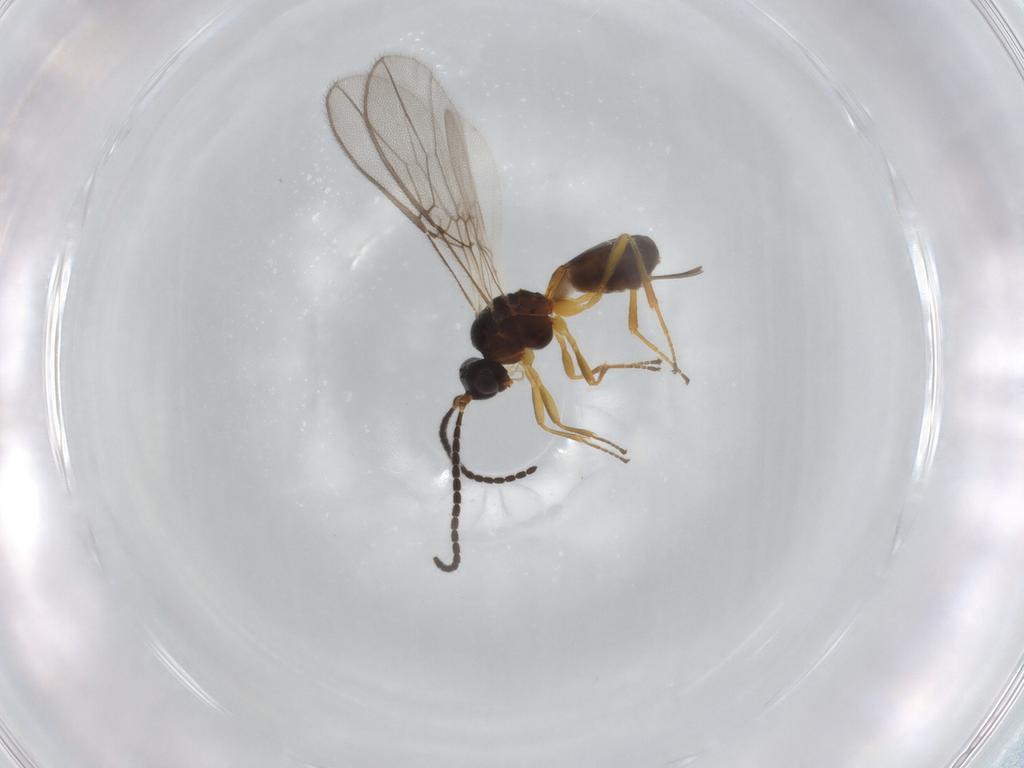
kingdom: Animalia
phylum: Arthropoda
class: Insecta
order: Hymenoptera
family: Braconidae
